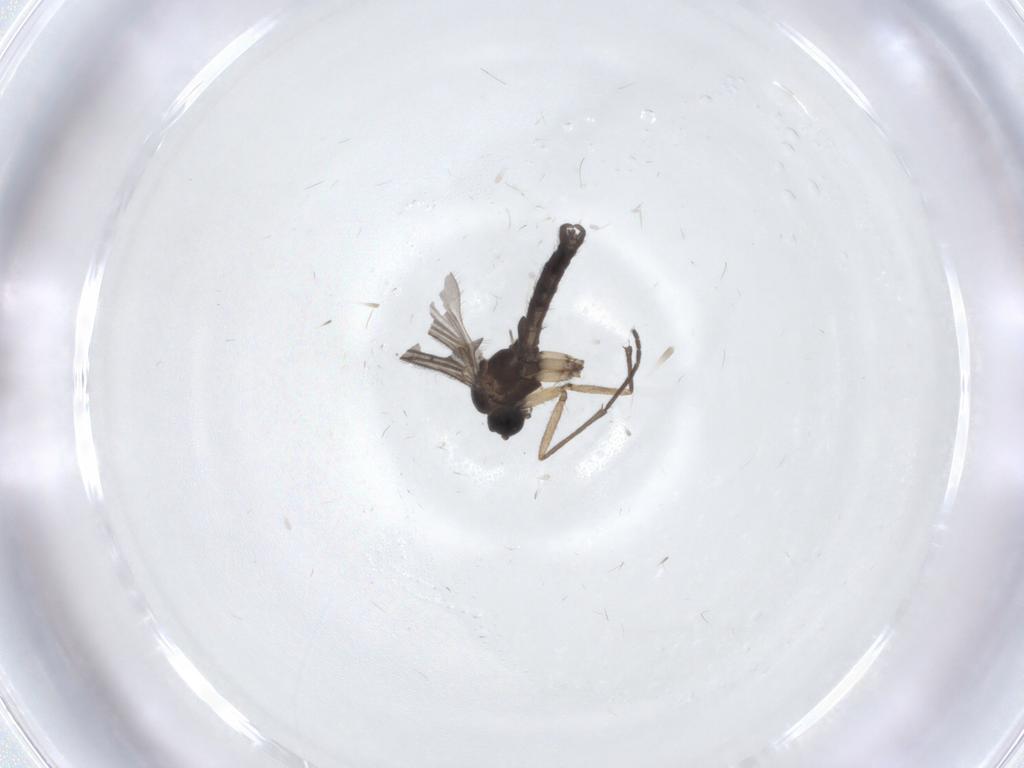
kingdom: Animalia
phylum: Arthropoda
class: Insecta
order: Diptera
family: Sciaridae
